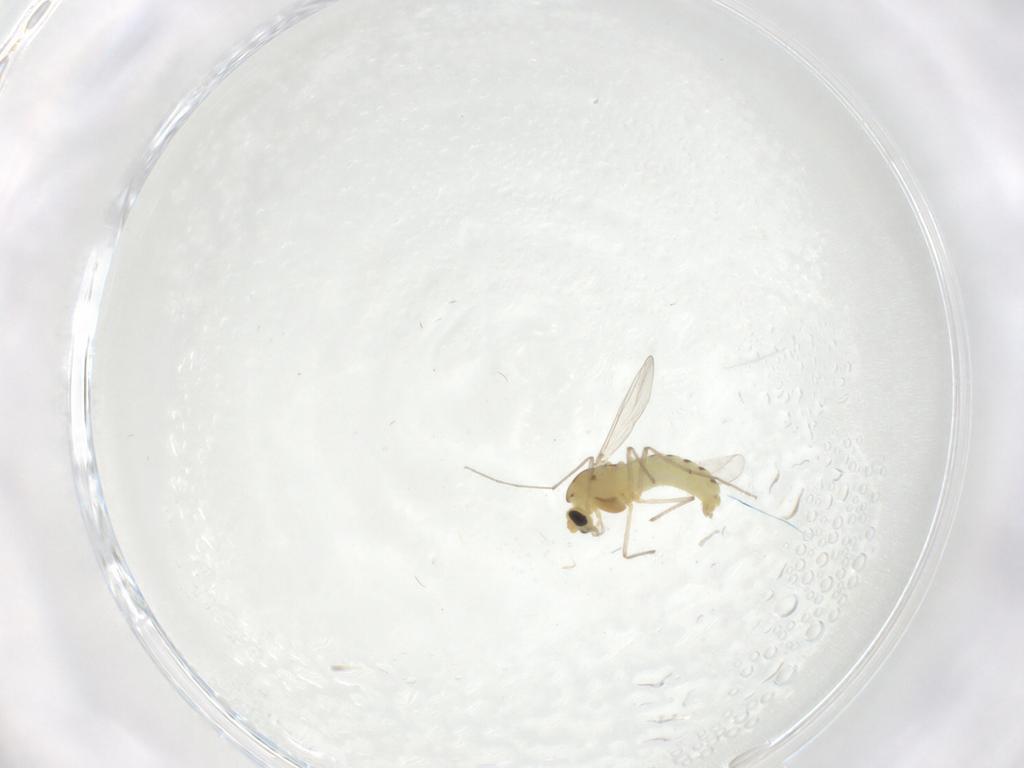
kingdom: Animalia
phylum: Arthropoda
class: Insecta
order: Diptera
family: Chironomidae
